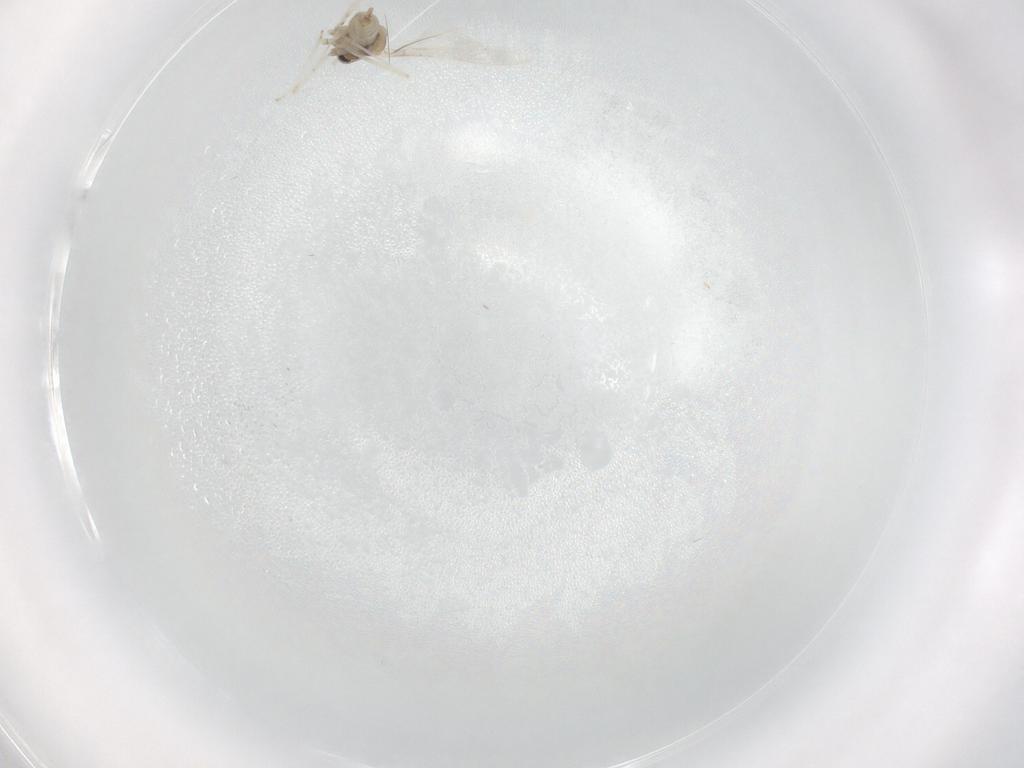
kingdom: Animalia
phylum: Arthropoda
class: Insecta
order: Diptera
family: Cecidomyiidae
